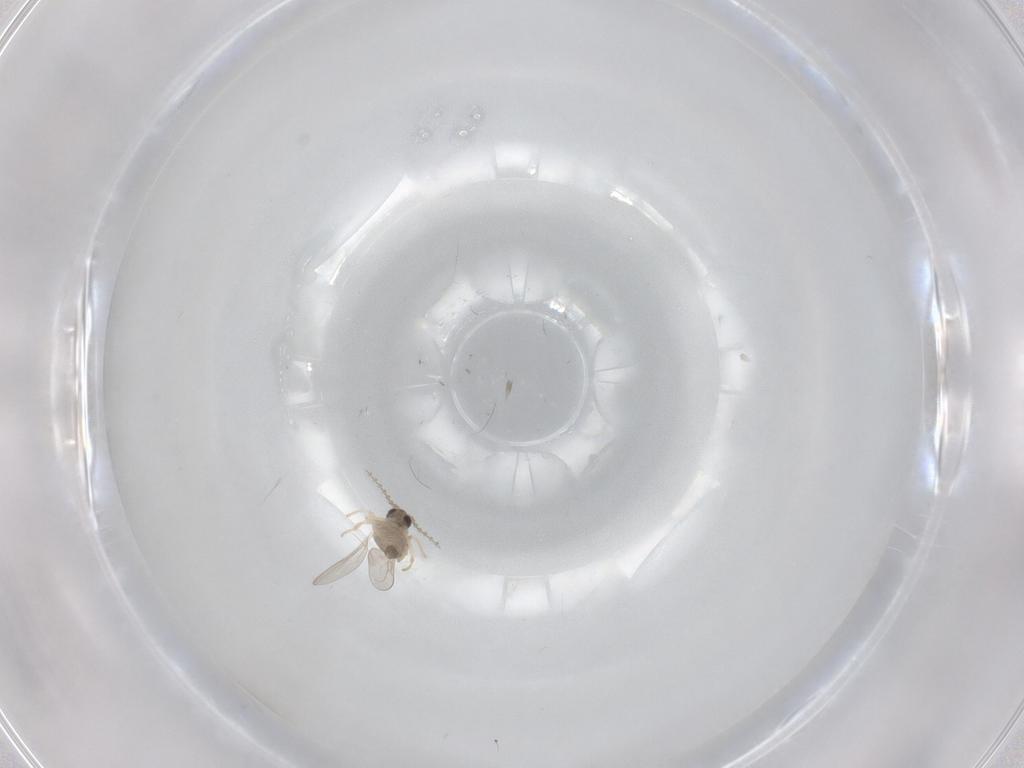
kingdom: Animalia
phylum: Arthropoda
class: Insecta
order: Diptera
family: Cecidomyiidae
